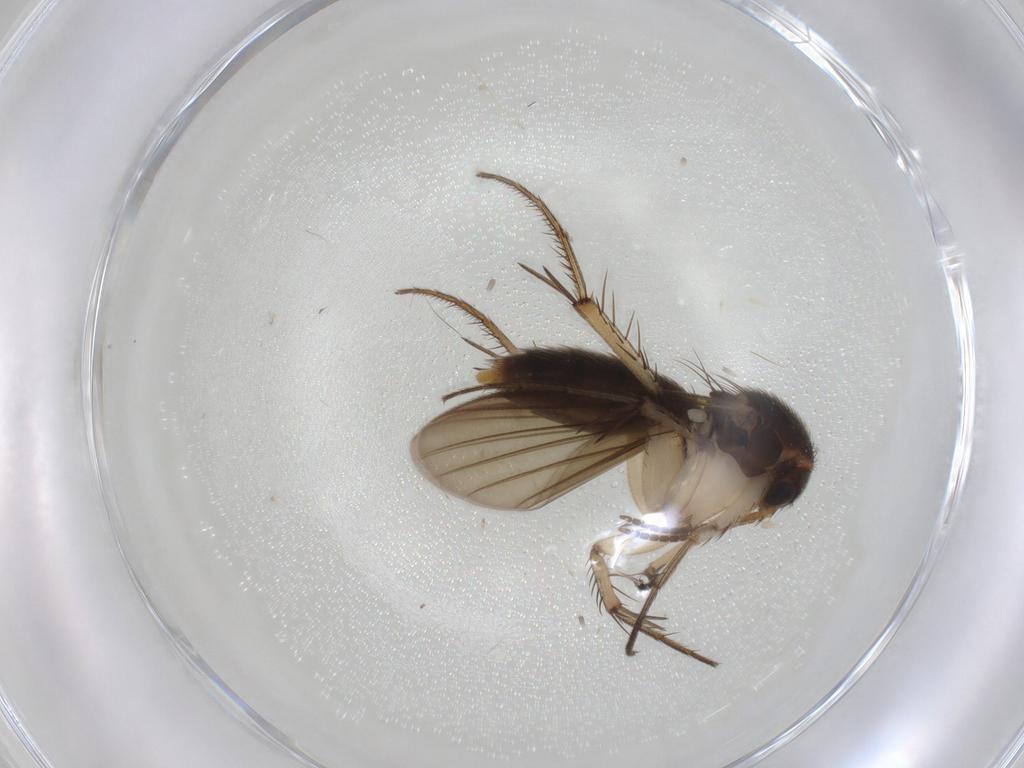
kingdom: Animalia
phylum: Arthropoda
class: Insecta
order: Diptera
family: Mycetophilidae
